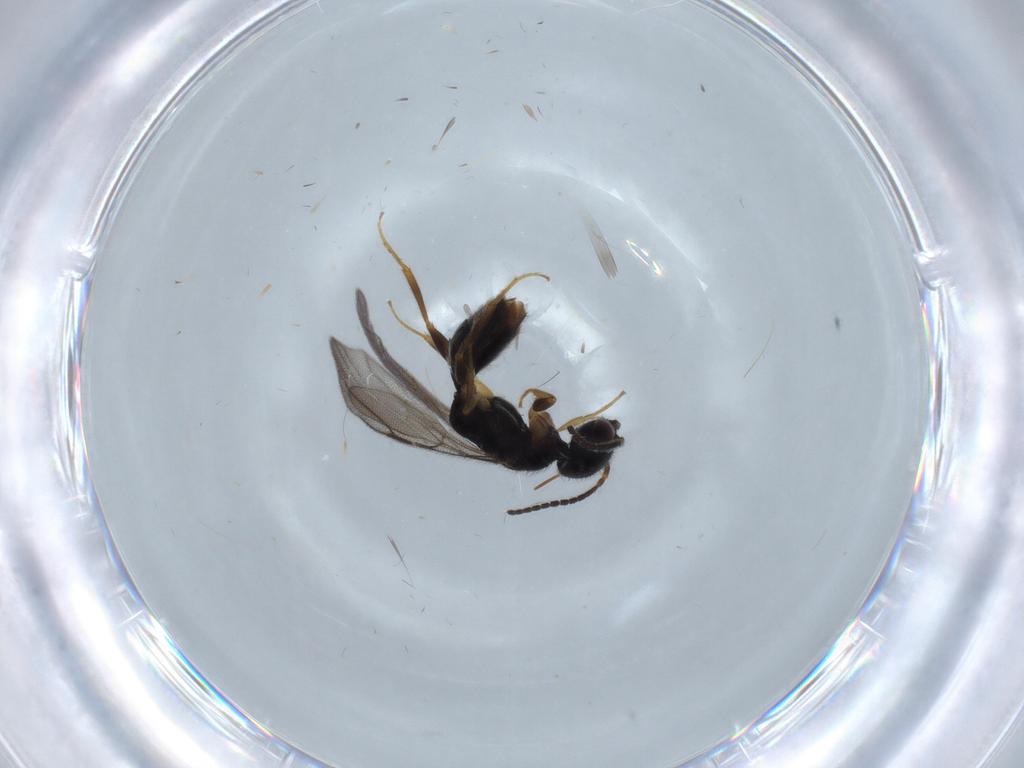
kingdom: Animalia
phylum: Arthropoda
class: Insecta
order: Hymenoptera
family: Bethylidae
